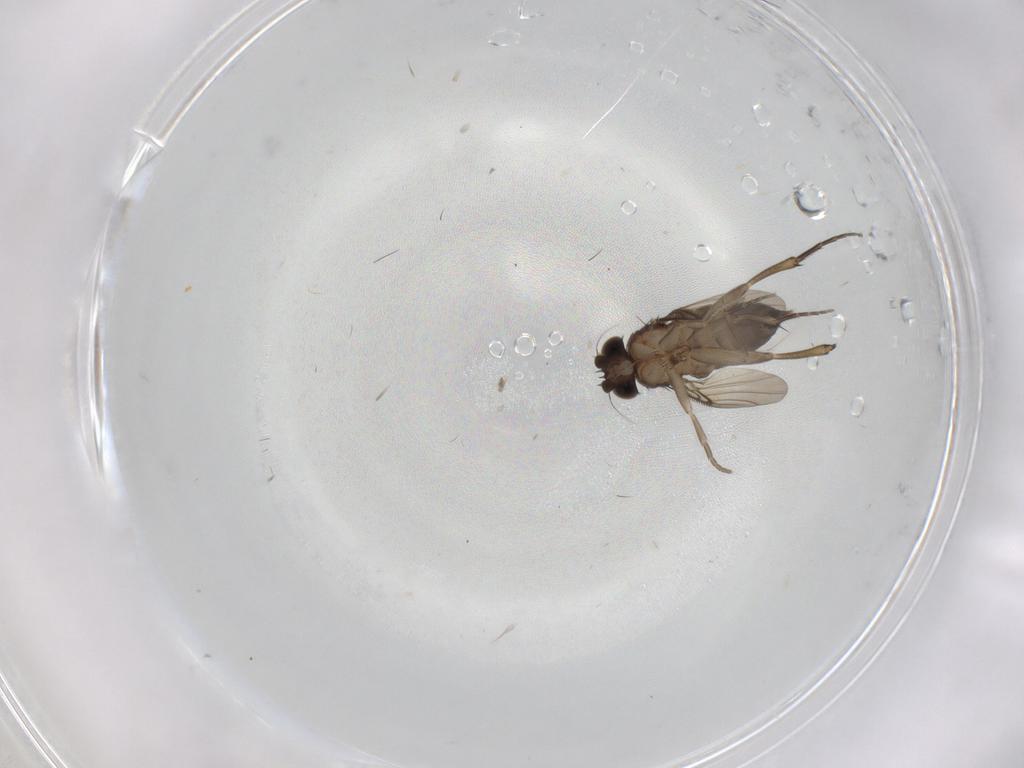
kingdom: Animalia
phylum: Arthropoda
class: Insecta
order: Diptera
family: Phoridae
